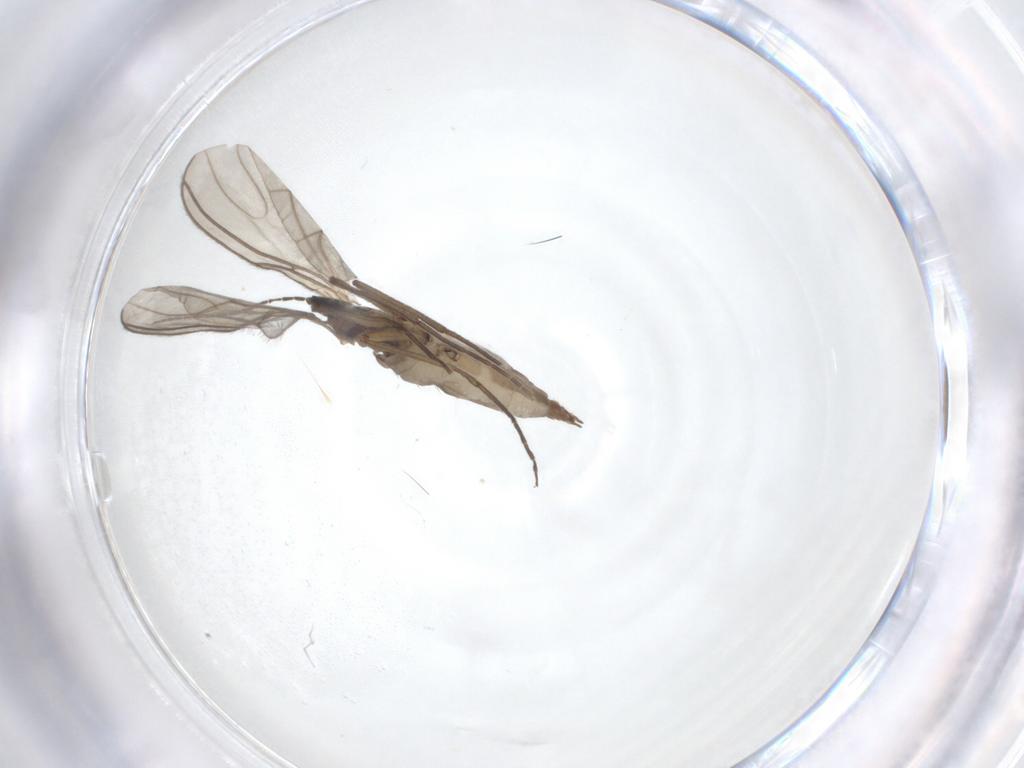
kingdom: Animalia
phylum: Arthropoda
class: Insecta
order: Diptera
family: Sciaridae
